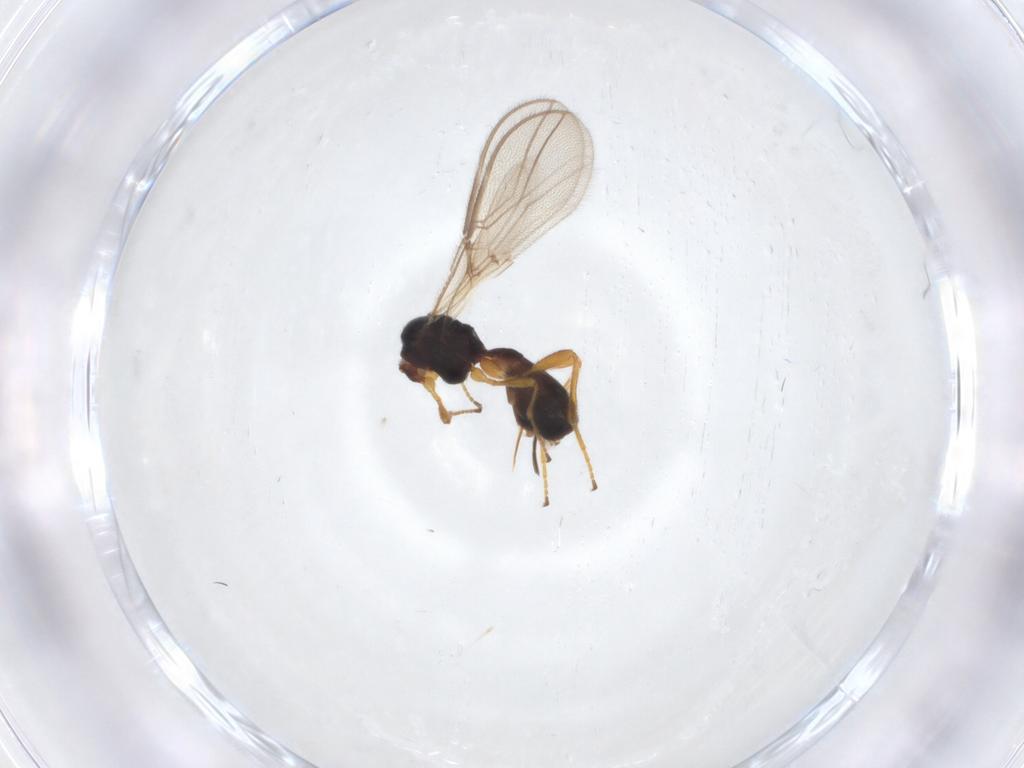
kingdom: Animalia
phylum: Arthropoda
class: Insecta
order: Hymenoptera
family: Braconidae
